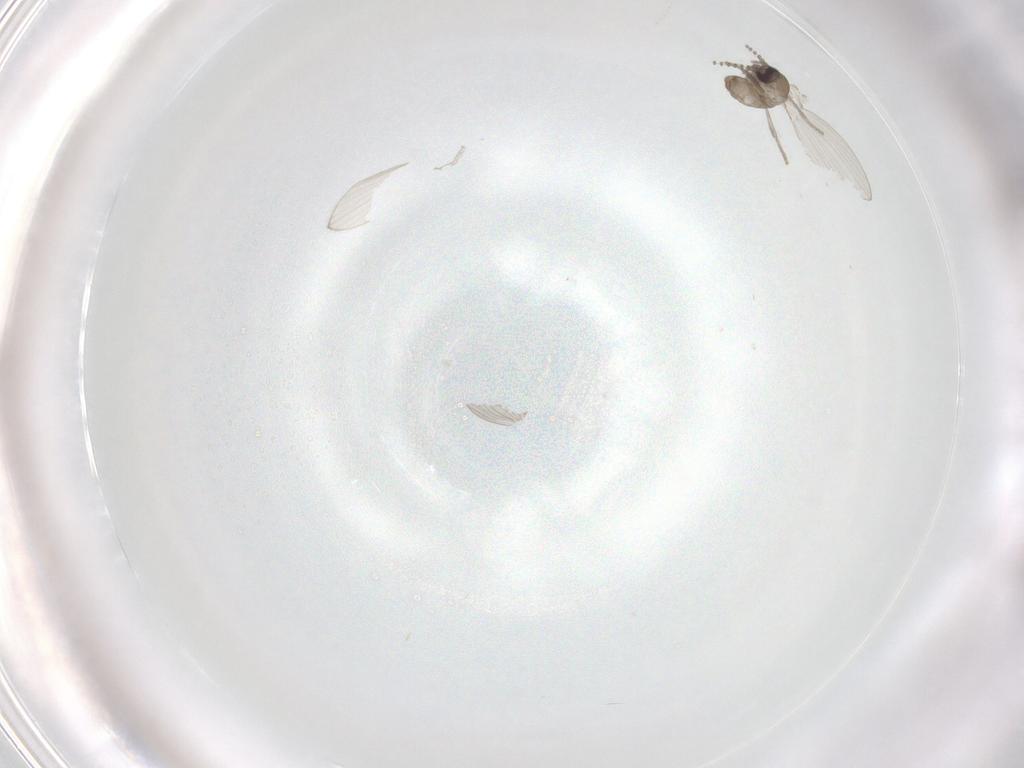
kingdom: Animalia
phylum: Arthropoda
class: Insecta
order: Diptera
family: Psychodidae
